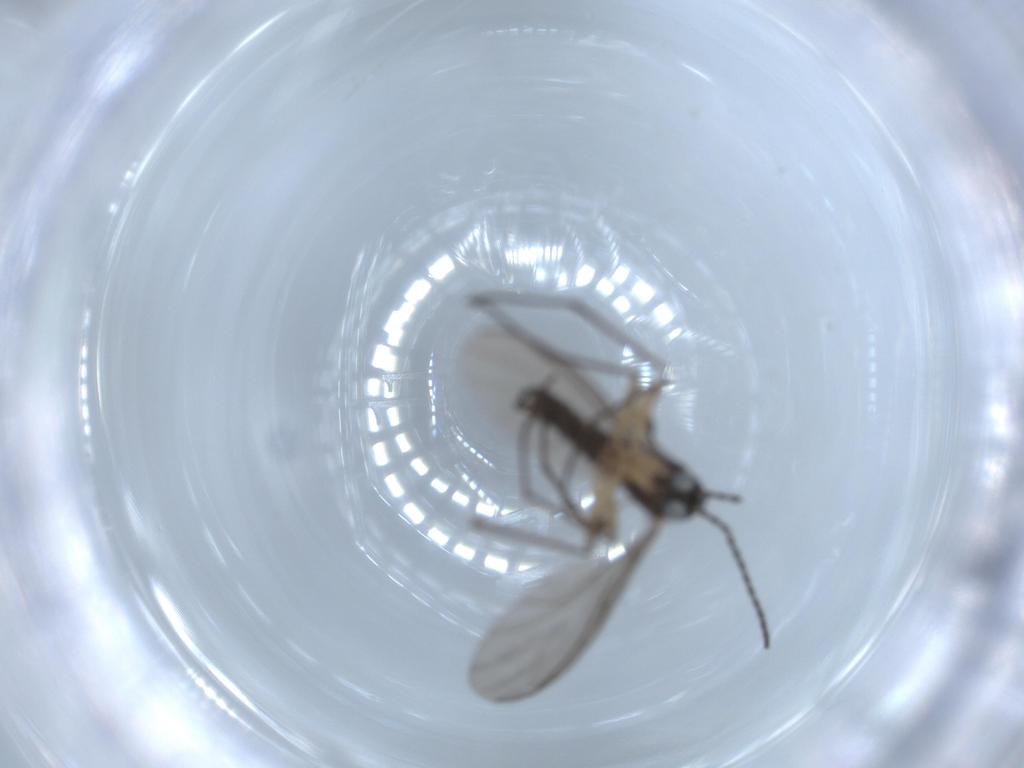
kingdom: Animalia
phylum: Arthropoda
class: Insecta
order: Diptera
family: Sciaridae
